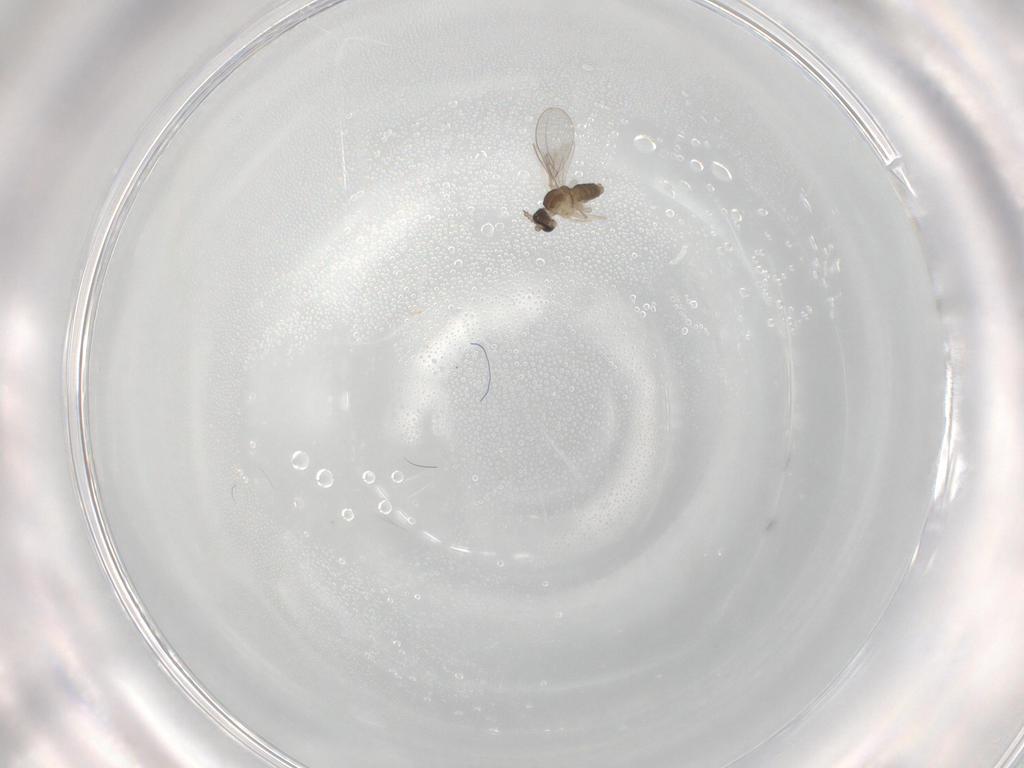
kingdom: Animalia
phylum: Arthropoda
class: Insecta
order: Diptera
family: Cecidomyiidae
